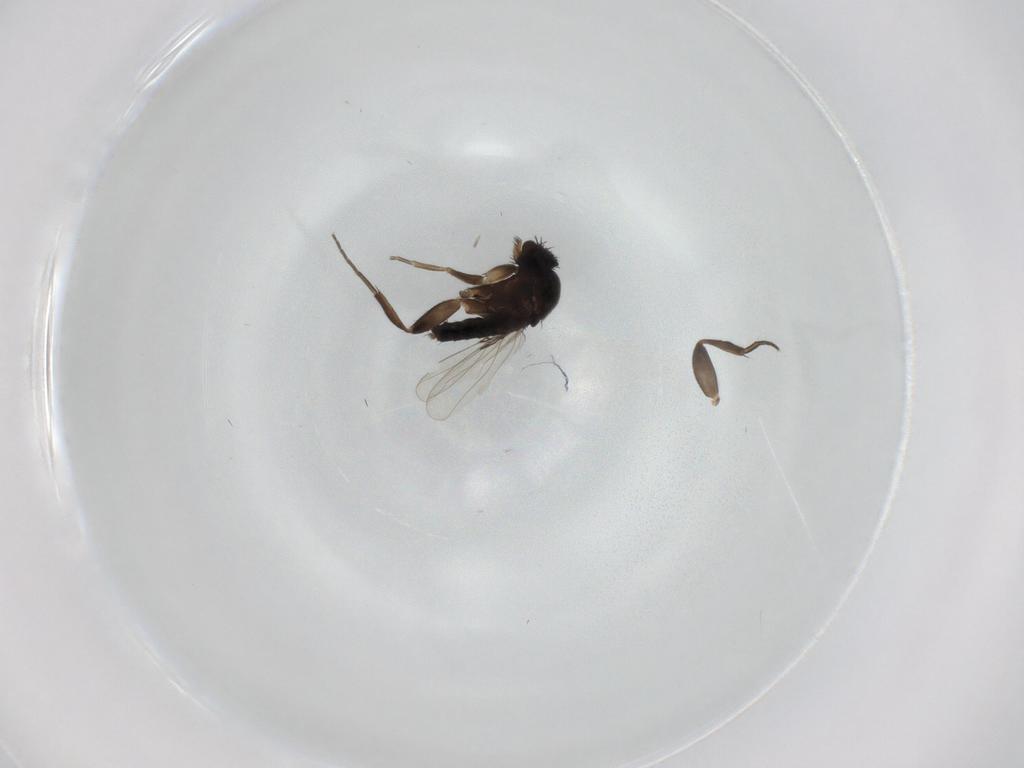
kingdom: Animalia
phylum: Arthropoda
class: Insecta
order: Diptera
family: Phoridae
